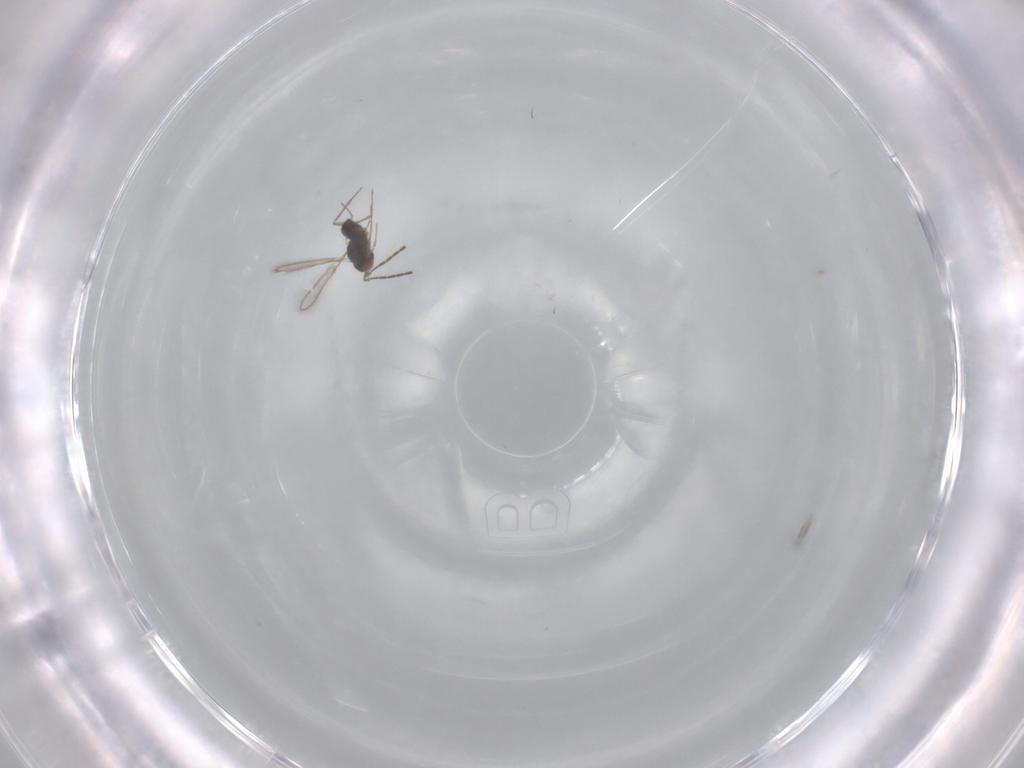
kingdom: Animalia
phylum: Arthropoda
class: Insecta
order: Hymenoptera
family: Mymaridae
